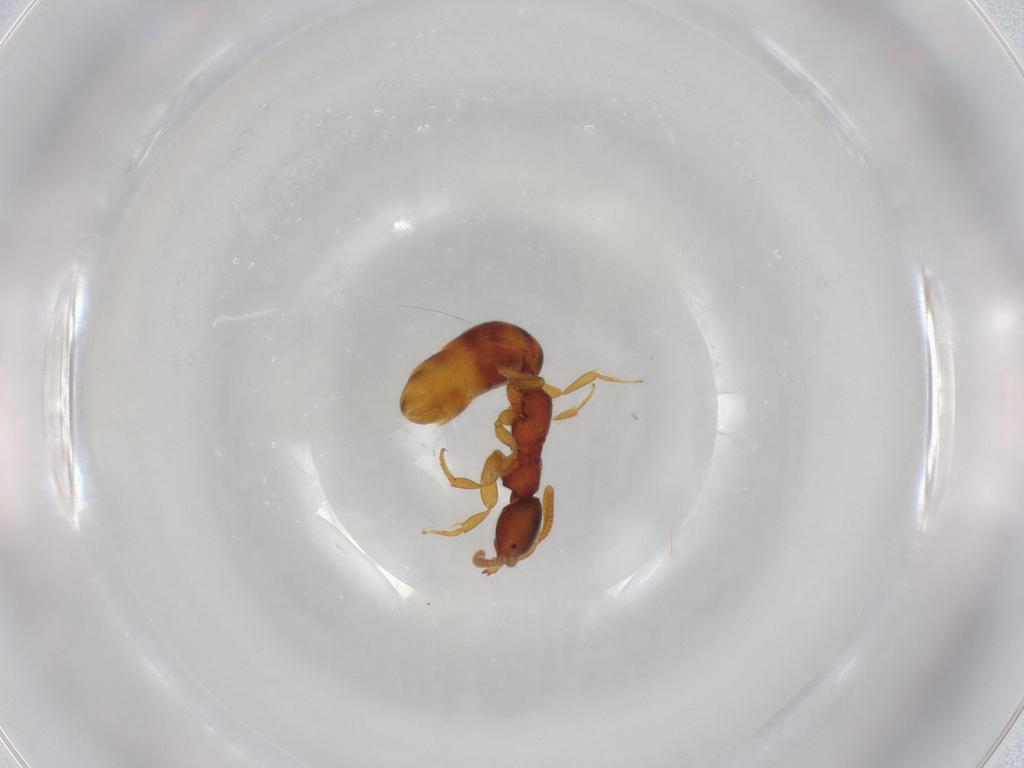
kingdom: Animalia
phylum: Arthropoda
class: Insecta
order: Hymenoptera
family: Bethylidae
